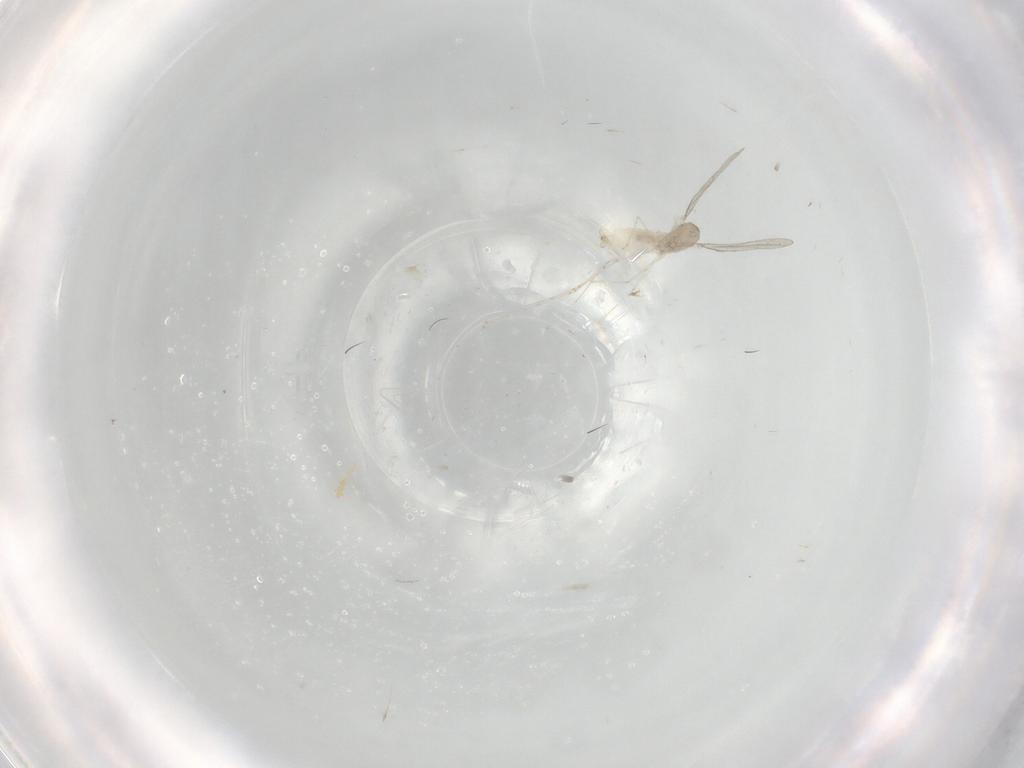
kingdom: Animalia
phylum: Arthropoda
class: Insecta
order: Diptera
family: Cecidomyiidae
